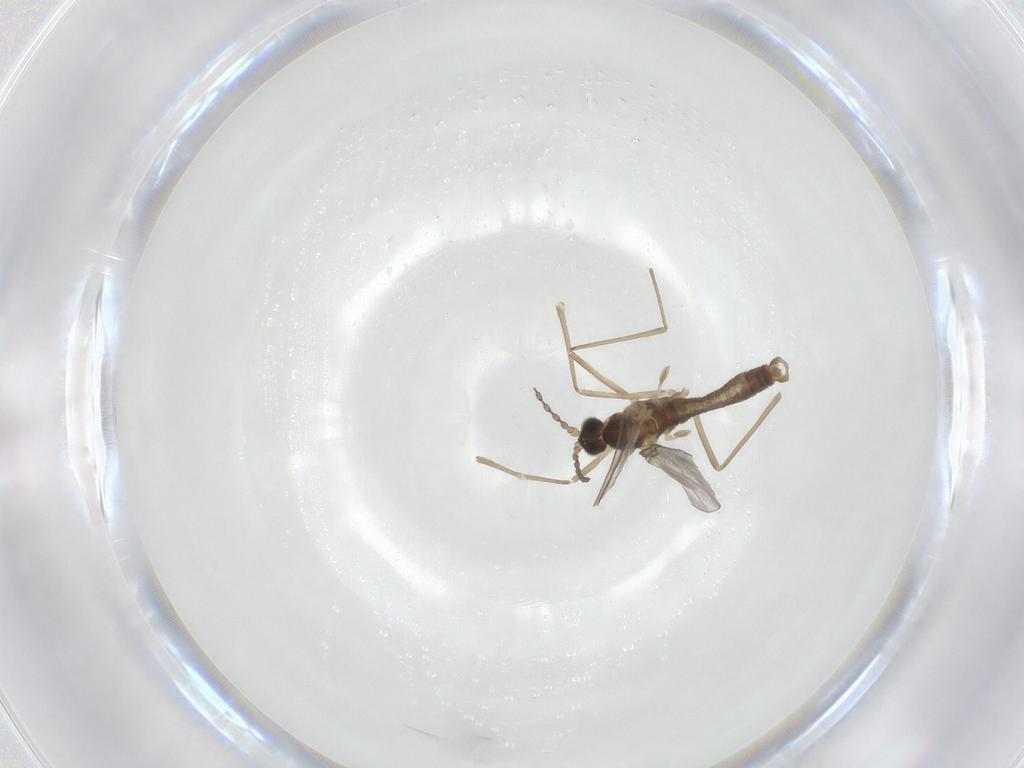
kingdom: Animalia
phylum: Arthropoda
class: Insecta
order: Diptera
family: Cecidomyiidae
